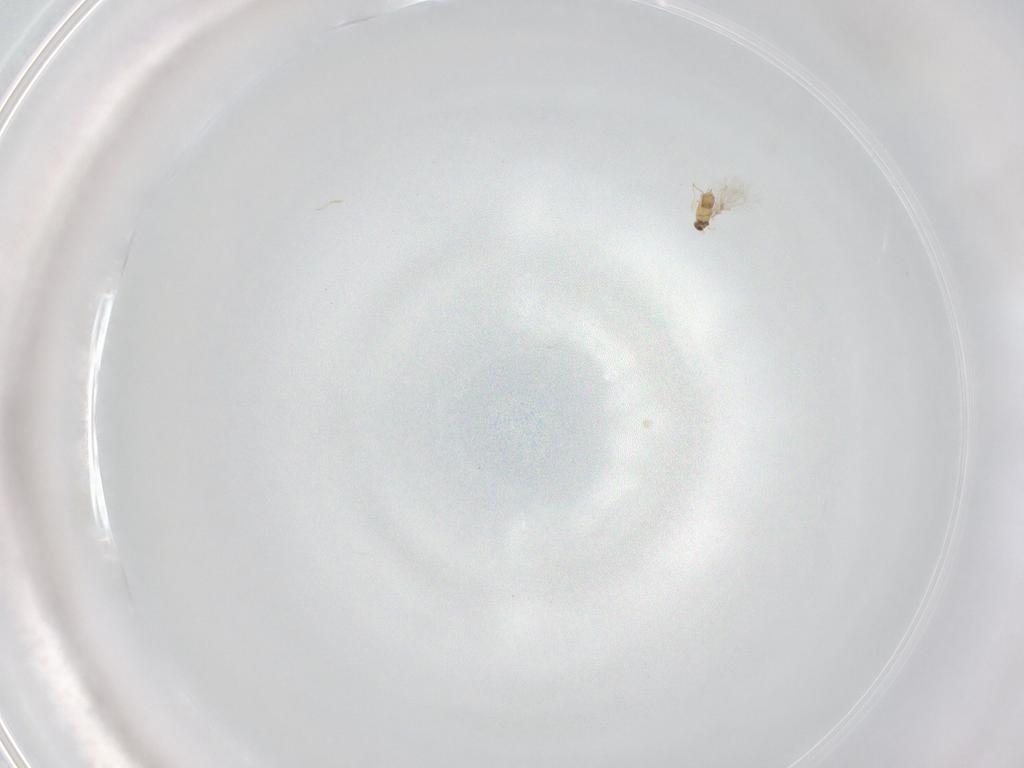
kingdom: Animalia
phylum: Arthropoda
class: Insecta
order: Hymenoptera
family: Mymaridae
